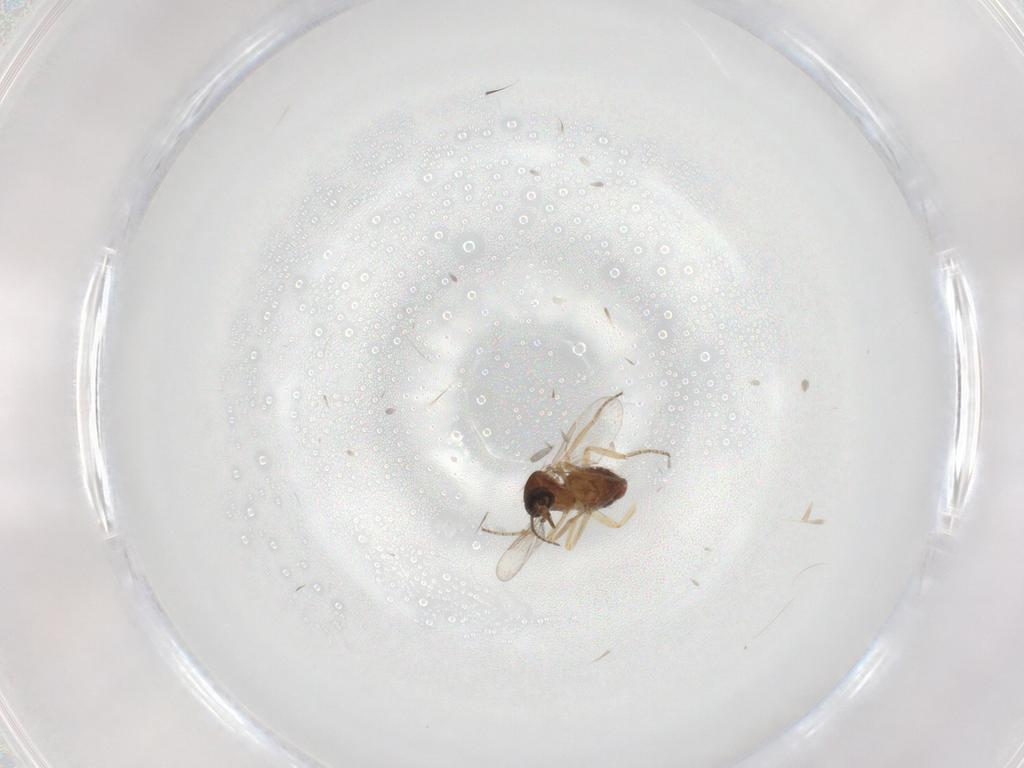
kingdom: Animalia
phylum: Arthropoda
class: Insecta
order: Diptera
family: Ceratopogonidae
